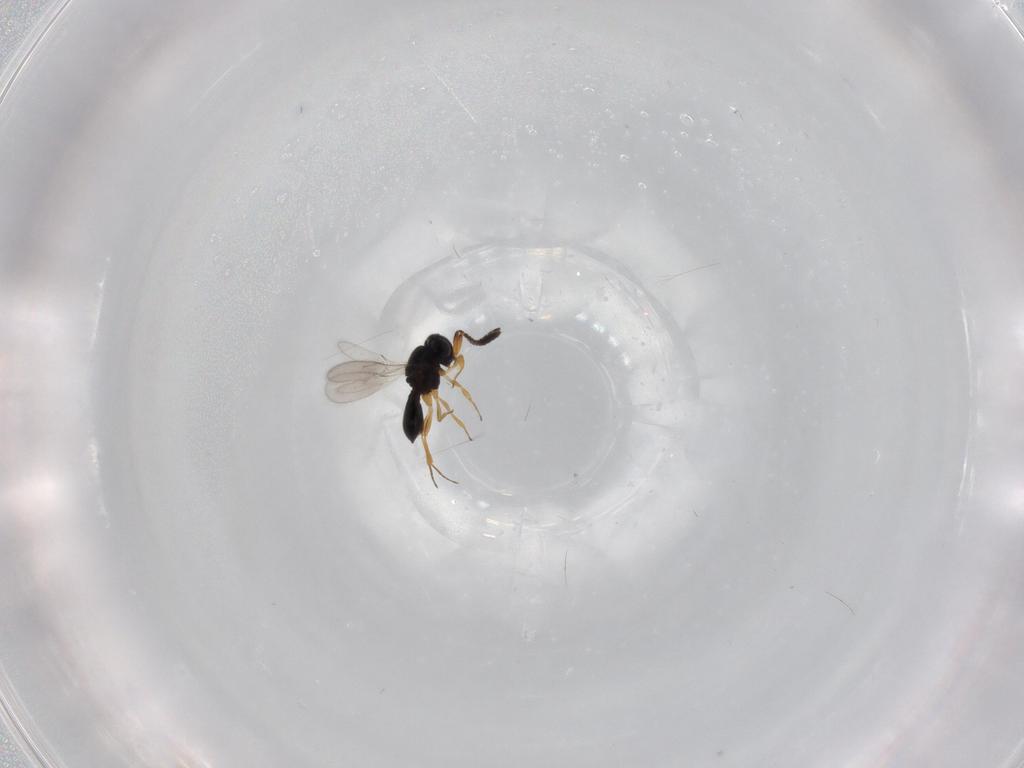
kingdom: Animalia
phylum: Arthropoda
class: Insecta
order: Hymenoptera
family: Scelionidae
